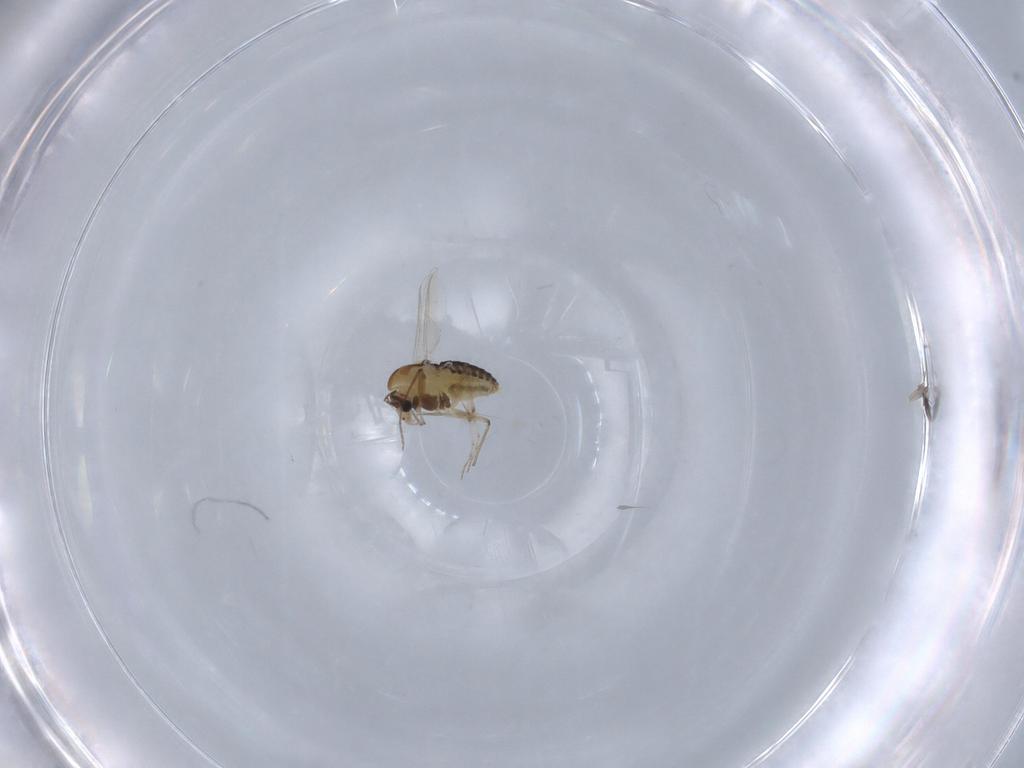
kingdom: Animalia
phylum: Arthropoda
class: Insecta
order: Diptera
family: Chironomidae
